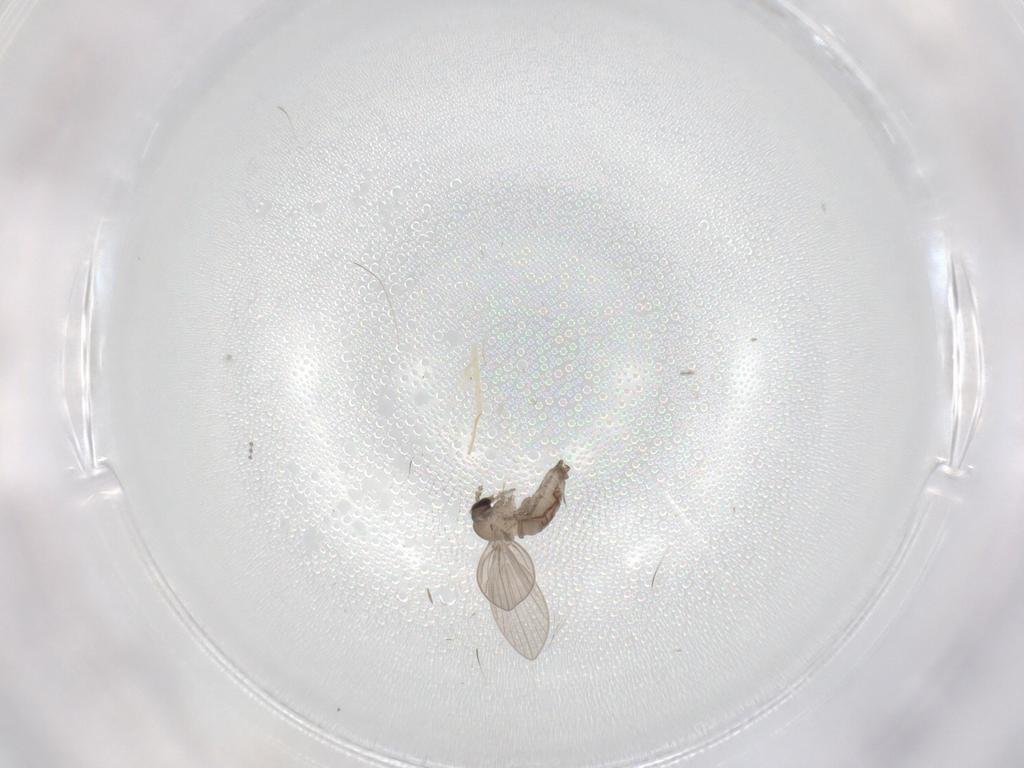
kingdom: Animalia
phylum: Arthropoda
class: Insecta
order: Diptera
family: Psychodidae
